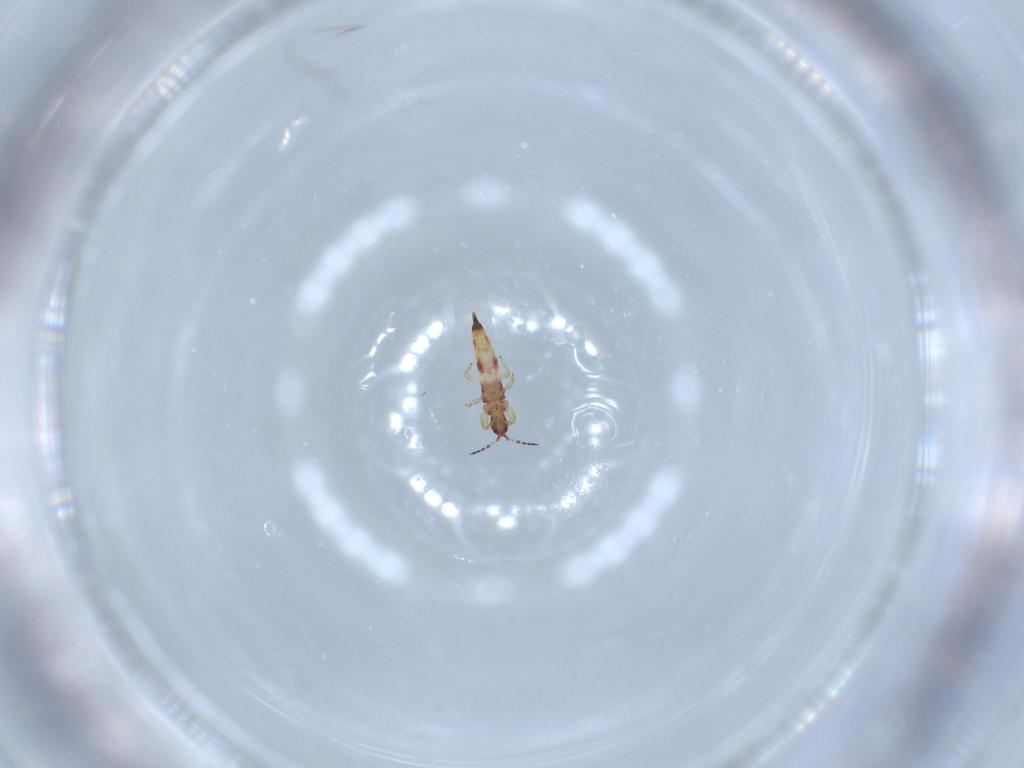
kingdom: Animalia
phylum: Arthropoda
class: Insecta
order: Thysanoptera
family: Phlaeothripidae
